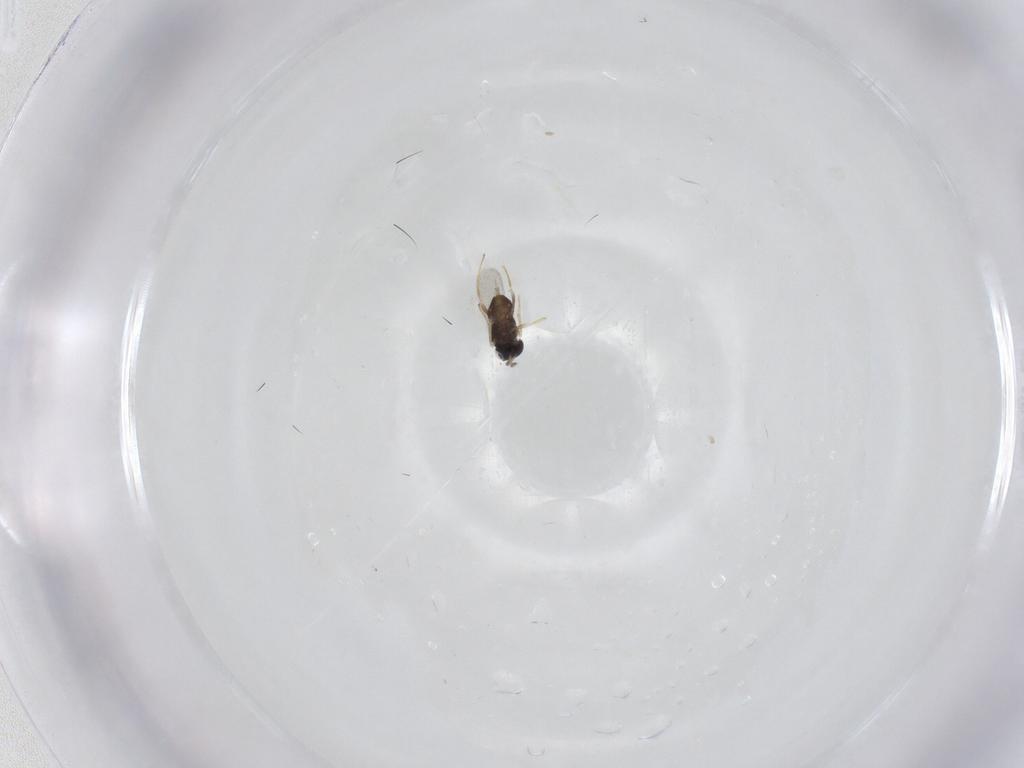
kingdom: Animalia
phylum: Arthropoda
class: Insecta
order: Hymenoptera
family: Encyrtidae
